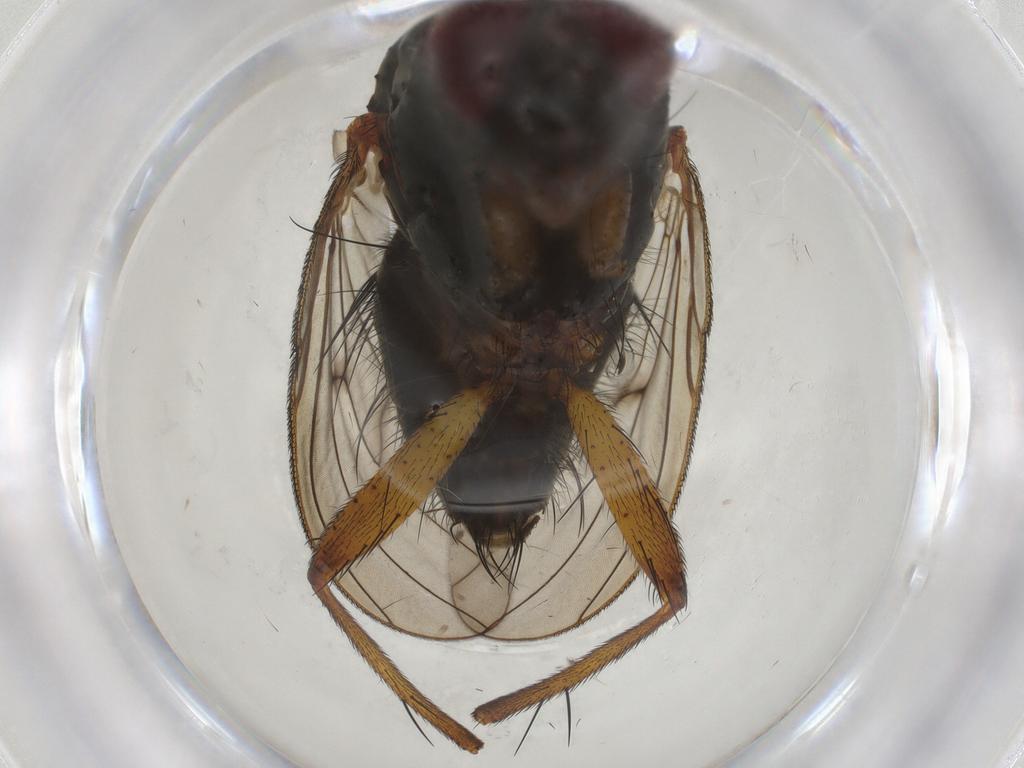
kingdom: Animalia
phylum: Arthropoda
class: Insecta
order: Diptera
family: Anthomyiidae
